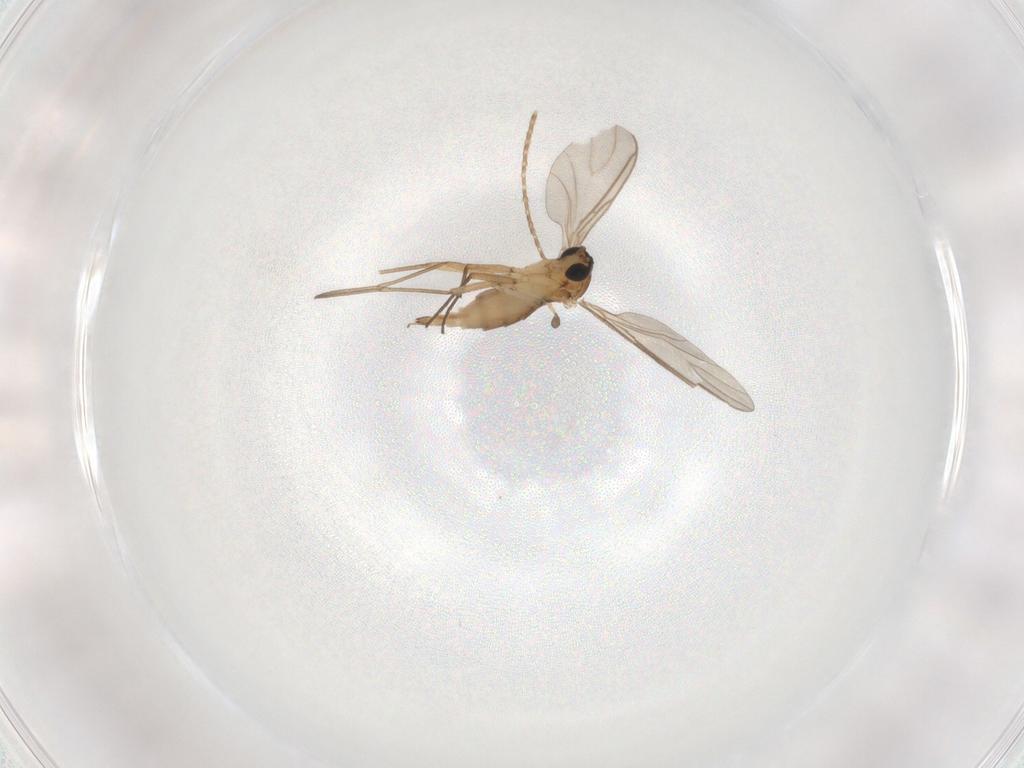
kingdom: Animalia
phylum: Arthropoda
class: Insecta
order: Diptera
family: Sciaridae
